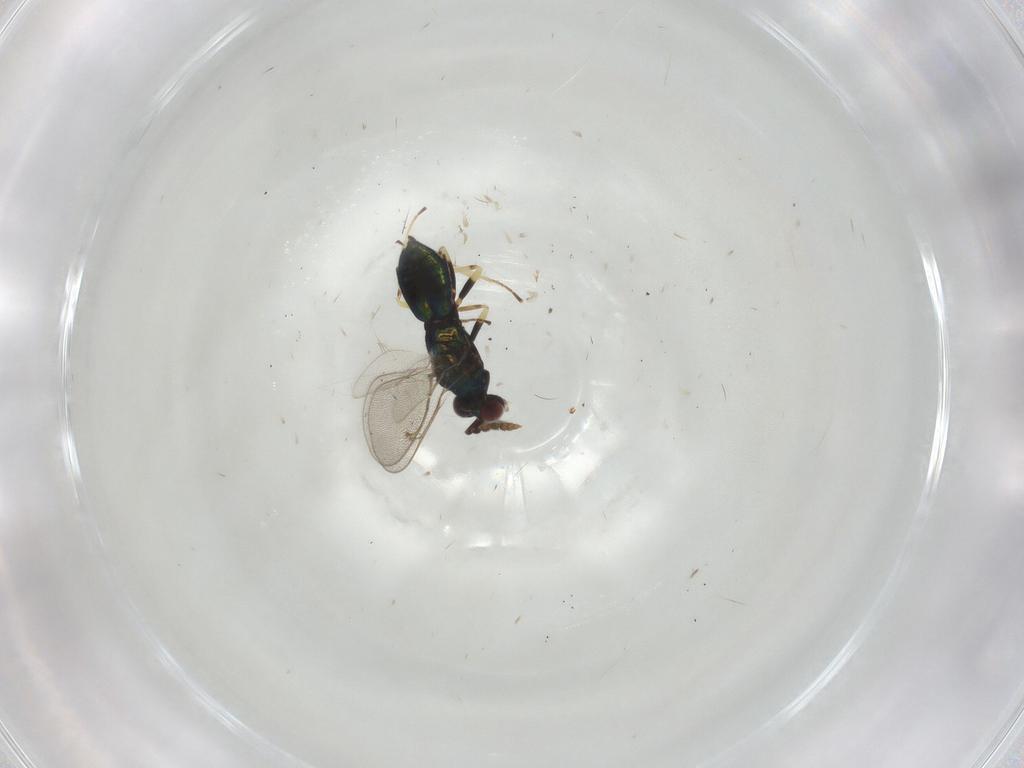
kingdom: Animalia
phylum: Arthropoda
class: Insecta
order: Hymenoptera
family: Eulophidae
